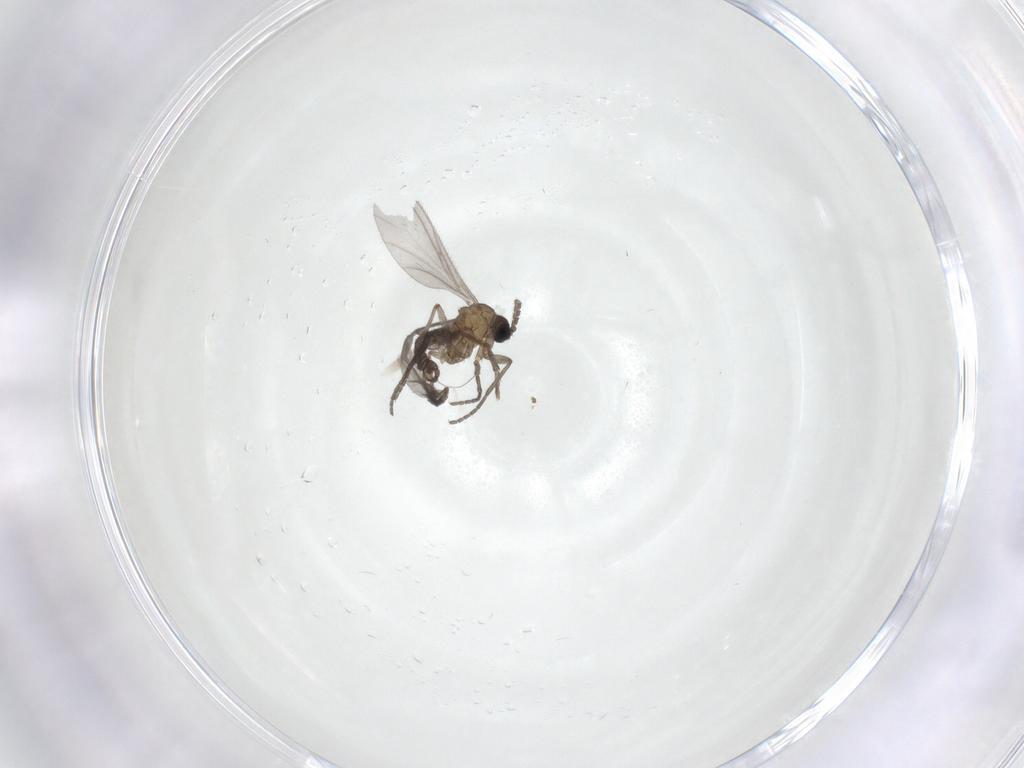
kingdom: Animalia
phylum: Arthropoda
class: Insecta
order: Diptera
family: Sciaridae
